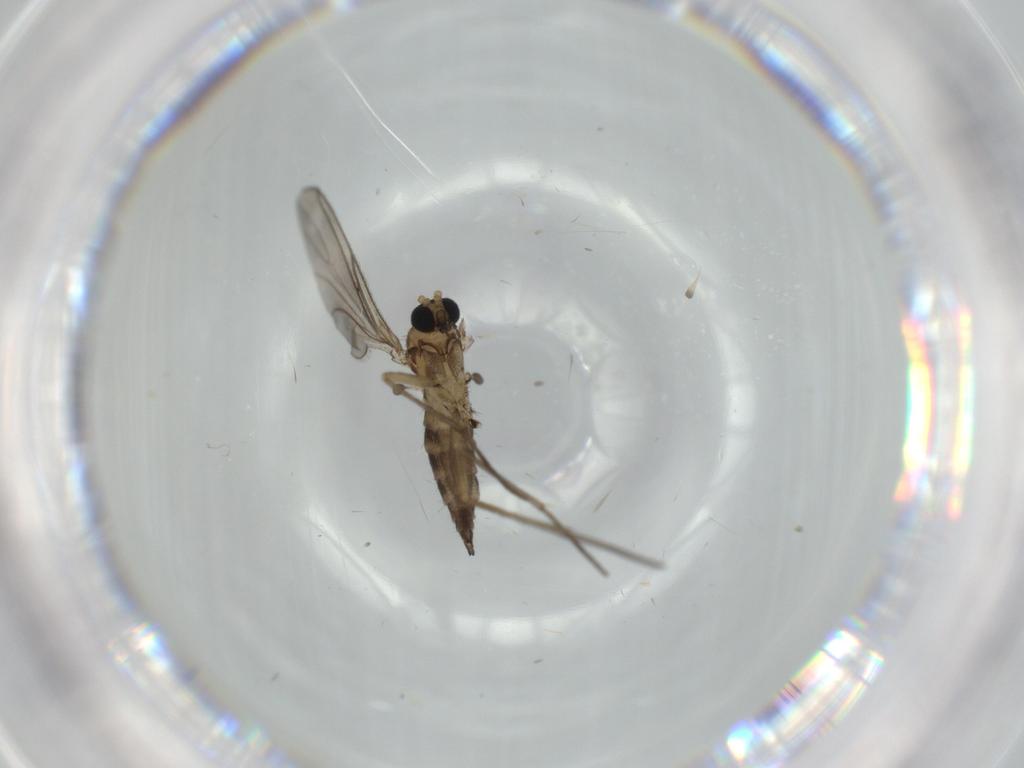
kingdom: Animalia
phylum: Arthropoda
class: Insecta
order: Diptera
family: Sciaridae
